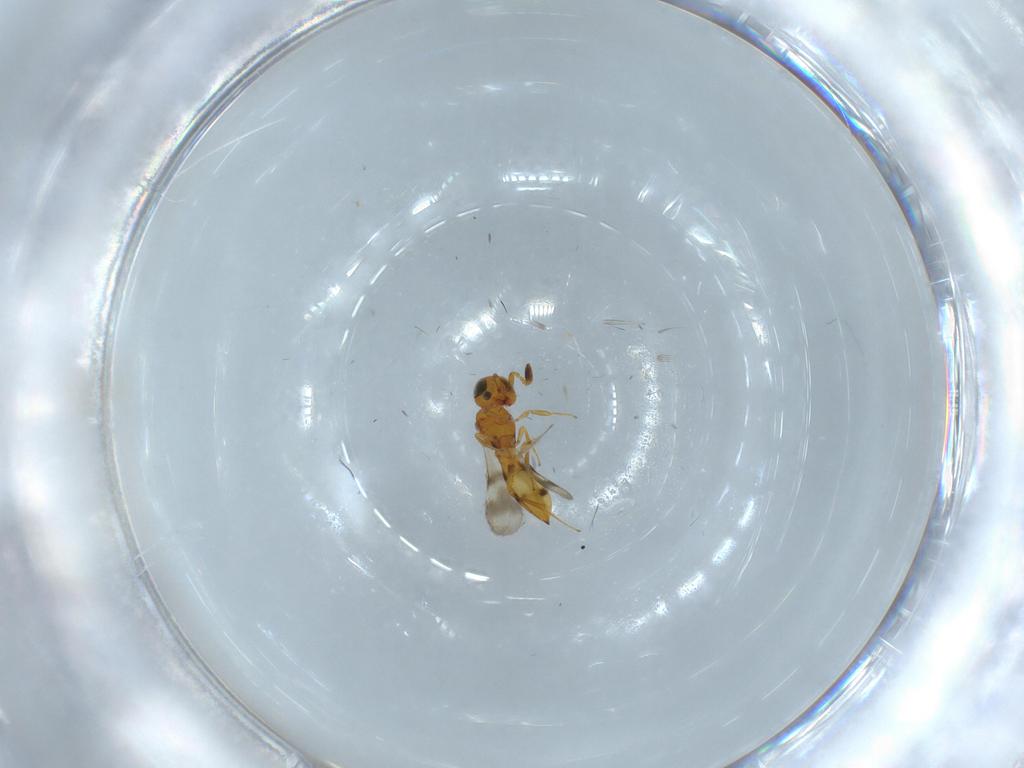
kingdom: Animalia
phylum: Arthropoda
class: Insecta
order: Hymenoptera
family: Scelionidae
